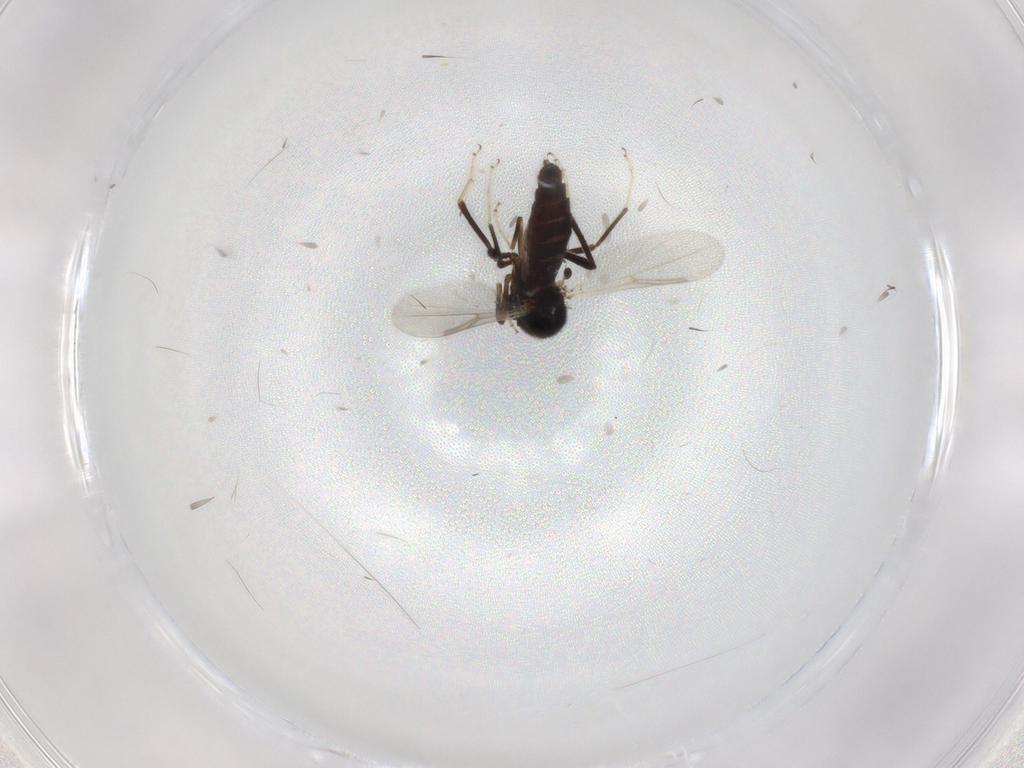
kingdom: Animalia
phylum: Arthropoda
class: Insecta
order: Diptera
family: Ceratopogonidae
